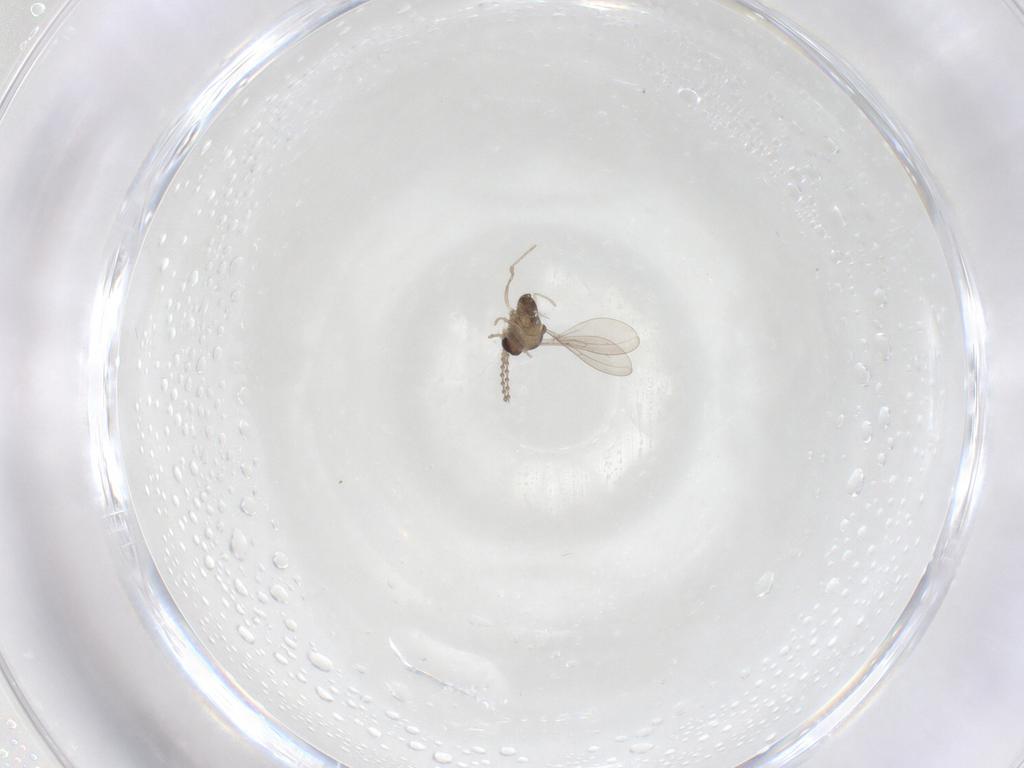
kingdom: Animalia
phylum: Arthropoda
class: Insecta
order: Diptera
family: Cecidomyiidae
